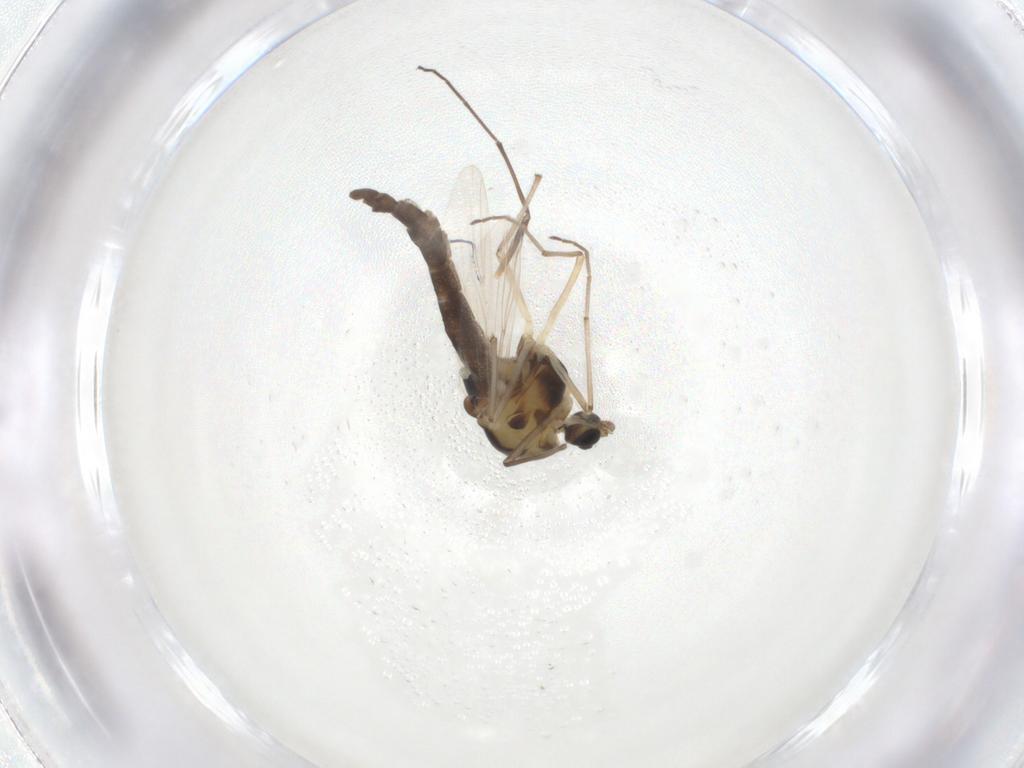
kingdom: Animalia
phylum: Arthropoda
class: Insecta
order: Diptera
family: Chironomidae
